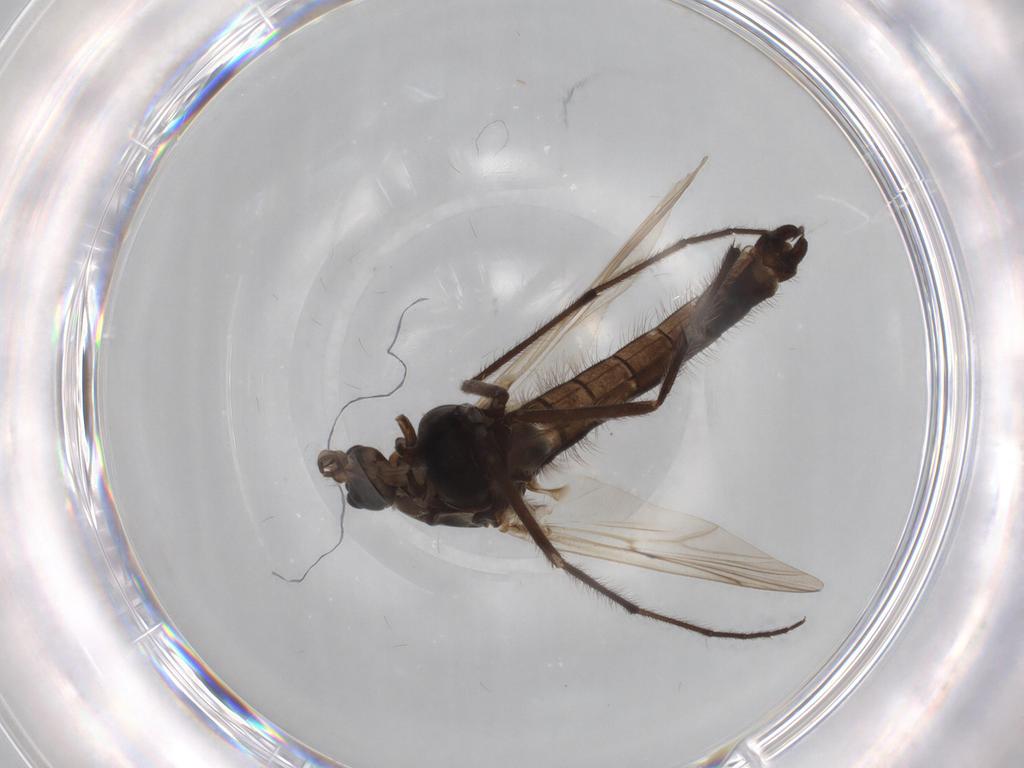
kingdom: Animalia
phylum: Arthropoda
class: Insecta
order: Diptera
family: Chironomidae
